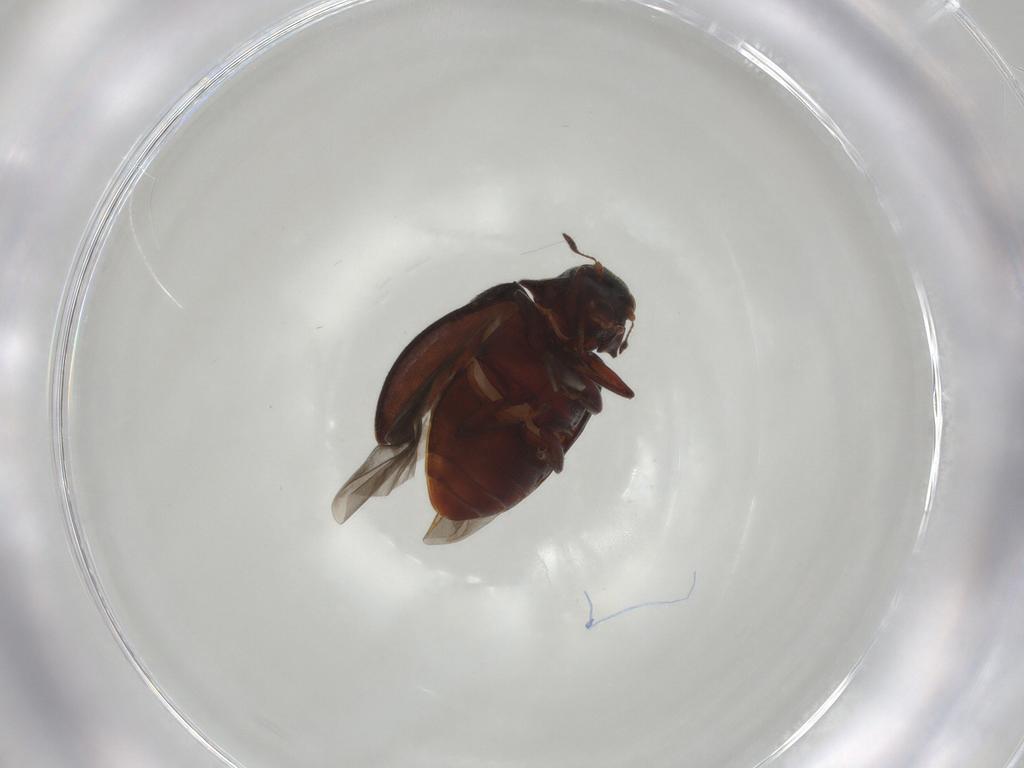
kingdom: Animalia
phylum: Arthropoda
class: Insecta
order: Coleoptera
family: Limnichidae
